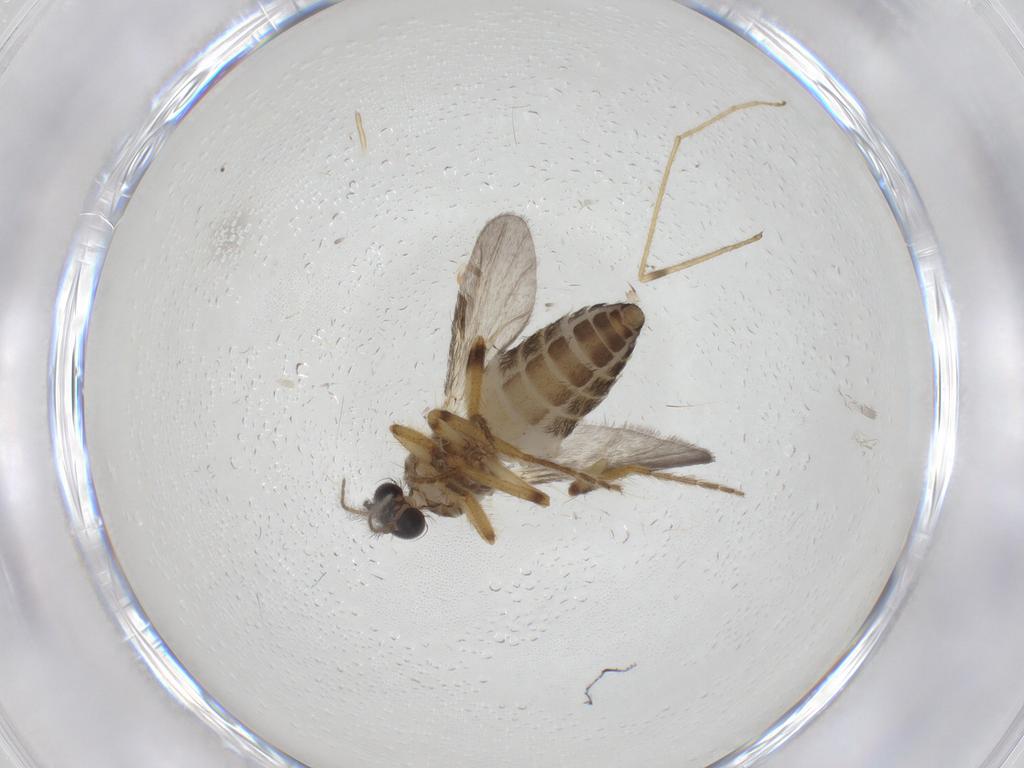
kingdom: Animalia
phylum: Arthropoda
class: Insecta
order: Diptera
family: Ceratopogonidae
